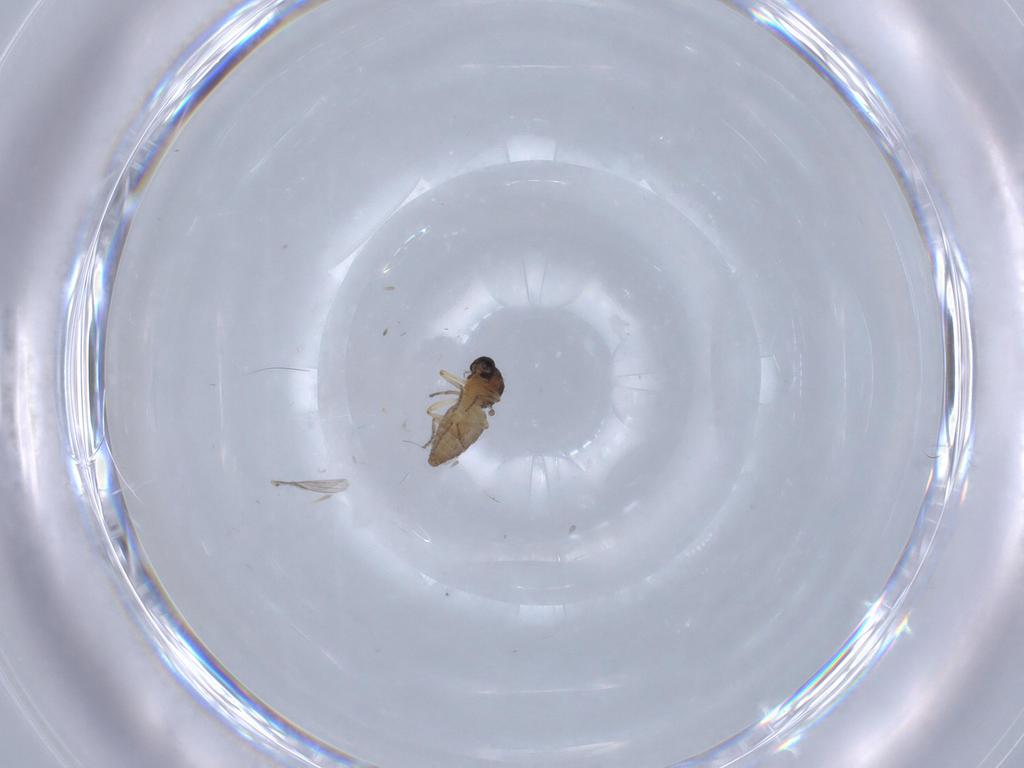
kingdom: Animalia
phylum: Arthropoda
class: Insecta
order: Diptera
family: Ceratopogonidae
